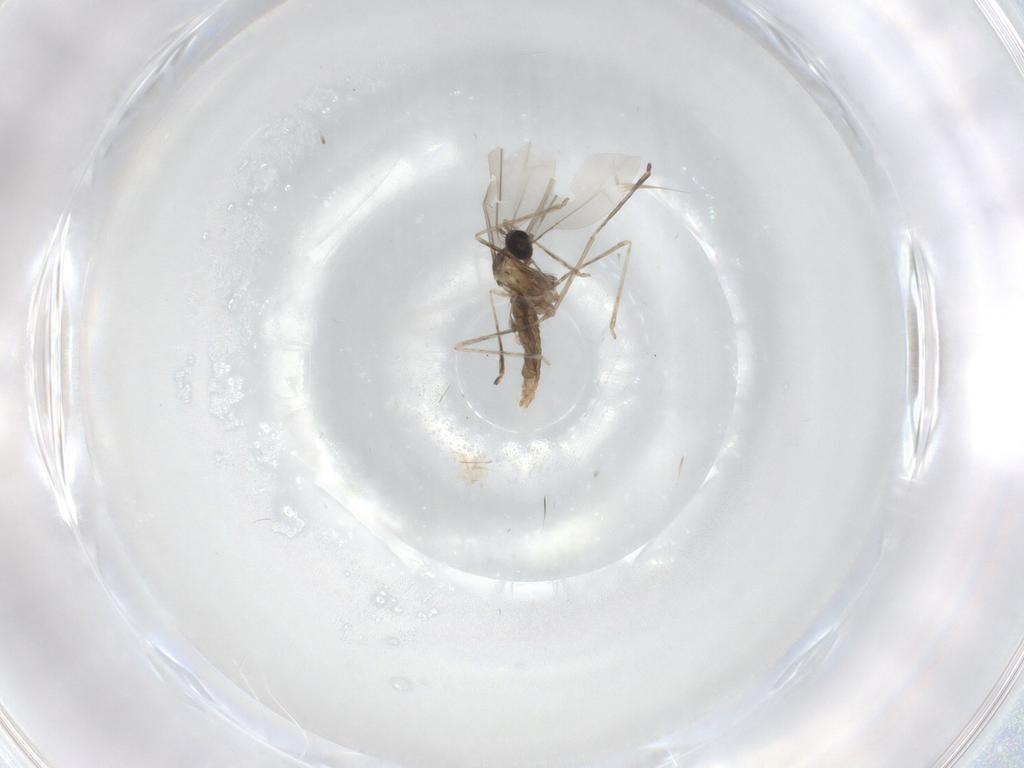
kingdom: Animalia
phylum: Arthropoda
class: Insecta
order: Diptera
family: Cecidomyiidae
